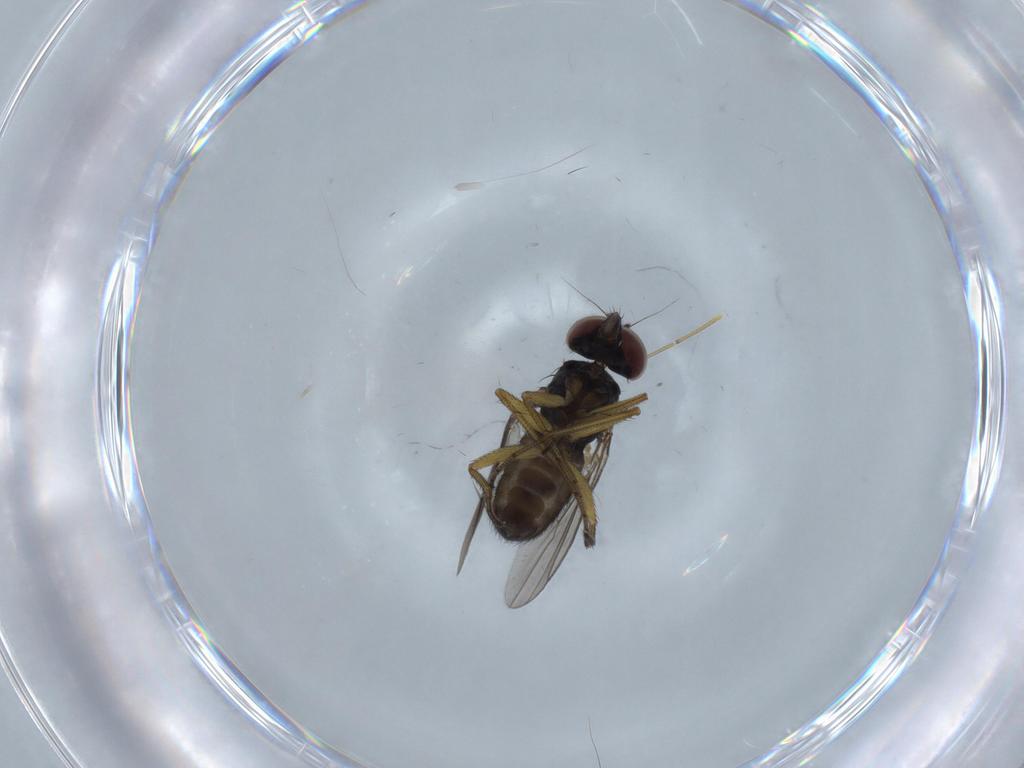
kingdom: Animalia
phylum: Arthropoda
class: Insecta
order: Diptera
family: Dolichopodidae
